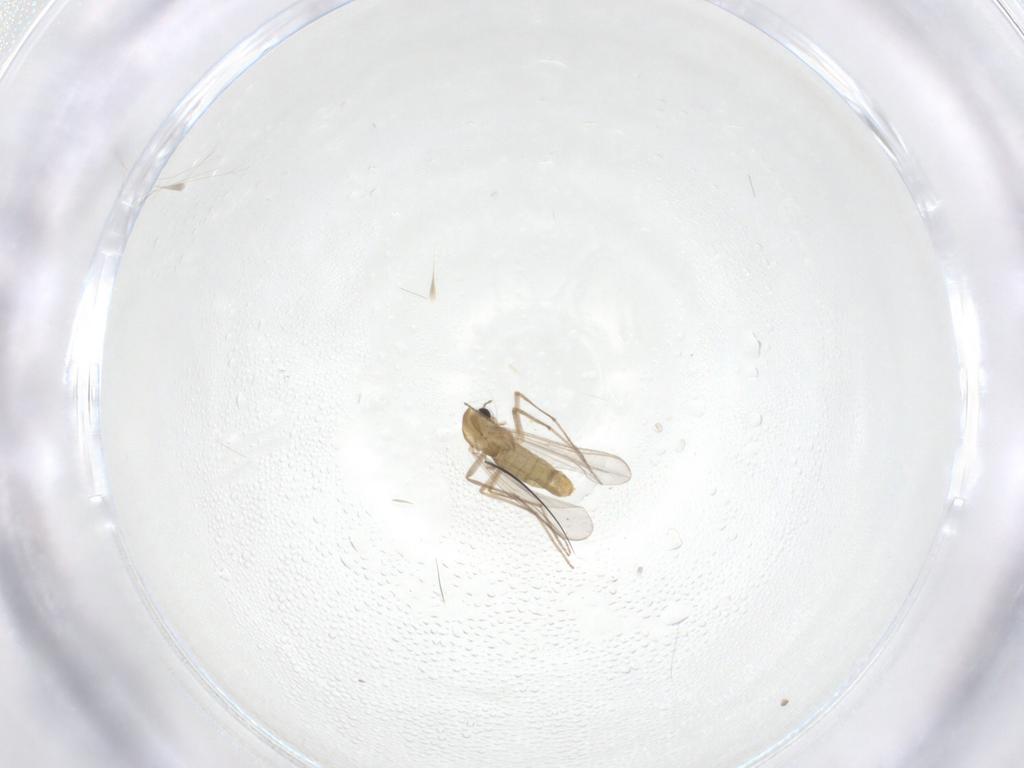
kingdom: Animalia
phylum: Arthropoda
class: Insecta
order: Diptera
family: Chironomidae
